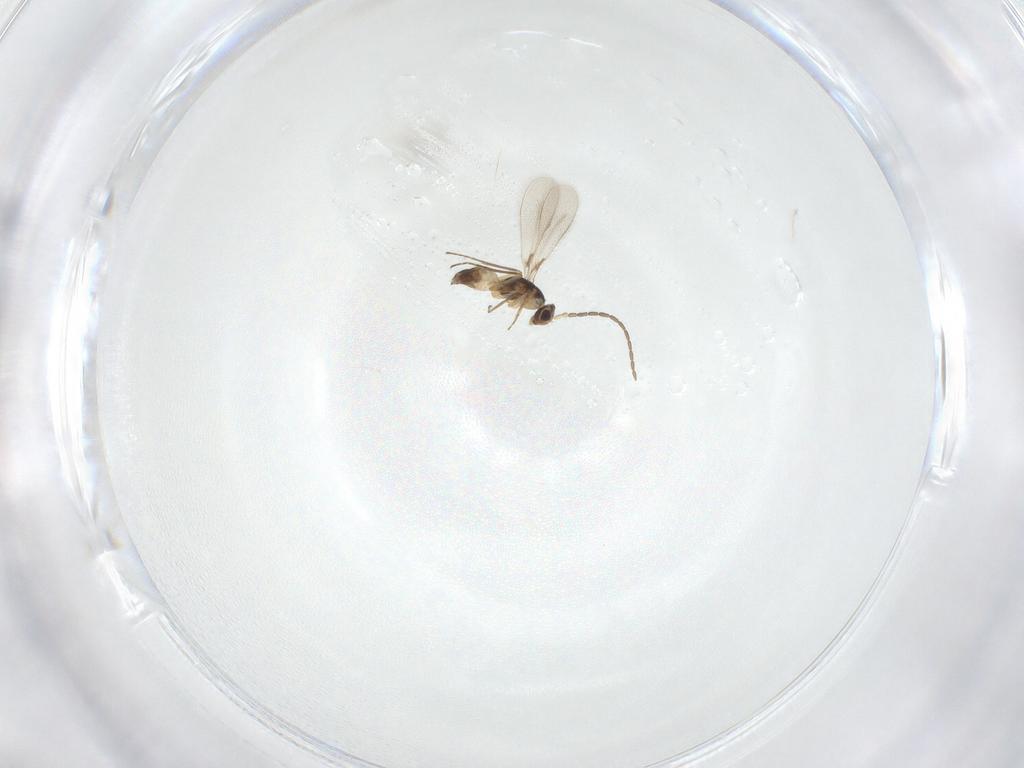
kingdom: Animalia
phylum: Arthropoda
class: Insecta
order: Hymenoptera
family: Mymaridae
